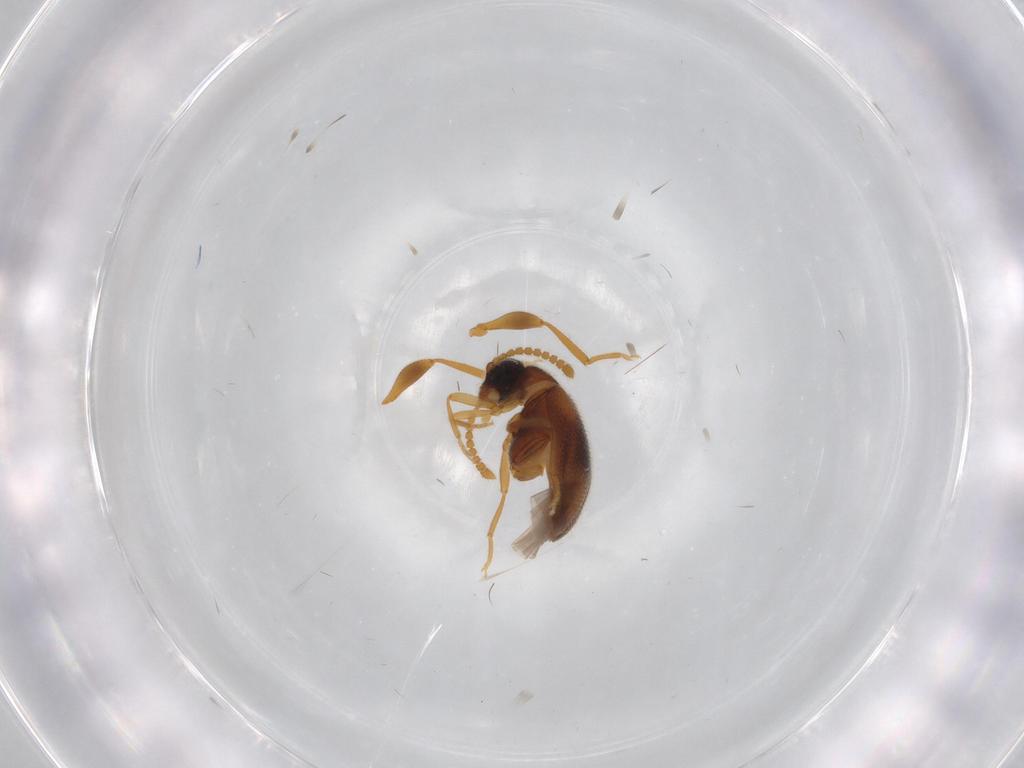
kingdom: Animalia
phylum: Arthropoda
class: Insecta
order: Coleoptera
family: Aderidae
